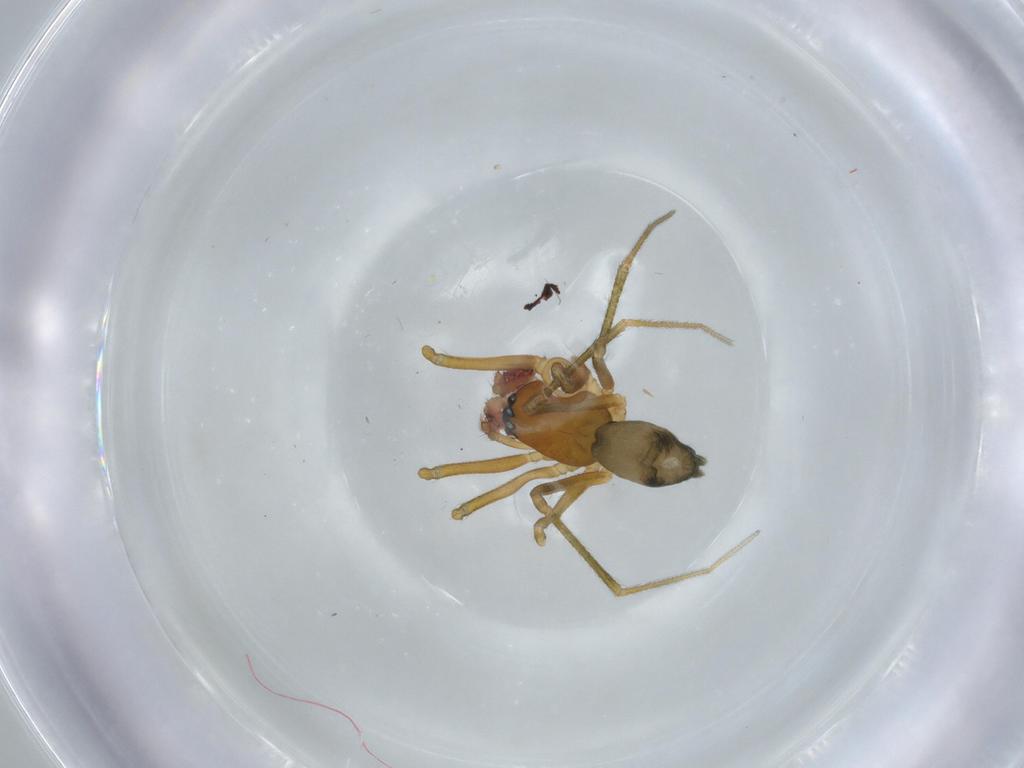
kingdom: Animalia
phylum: Arthropoda
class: Arachnida
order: Araneae
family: Linyphiidae
